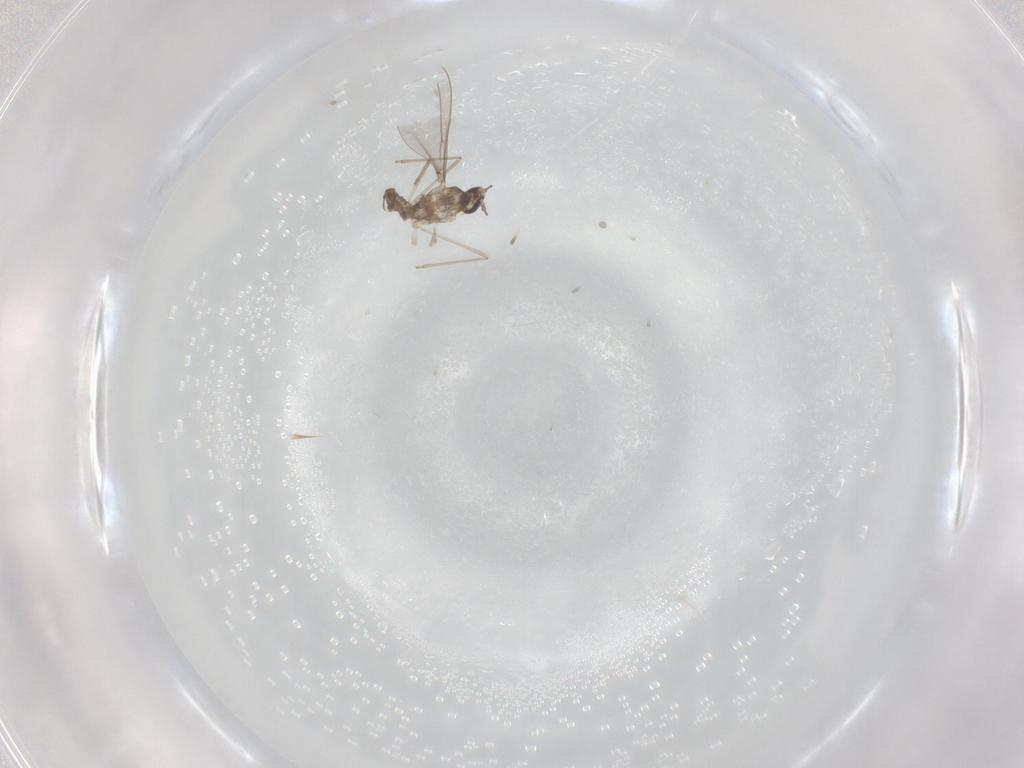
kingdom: Animalia
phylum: Arthropoda
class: Insecta
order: Diptera
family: Cecidomyiidae
